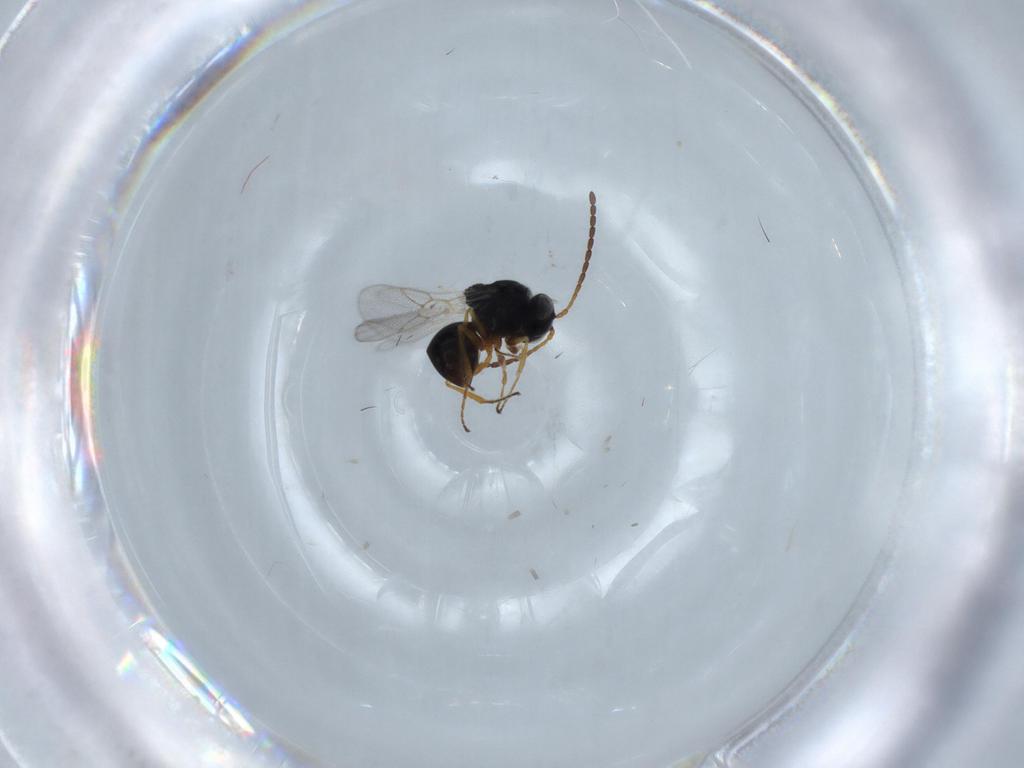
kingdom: Animalia
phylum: Arthropoda
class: Insecta
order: Hymenoptera
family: Figitidae
